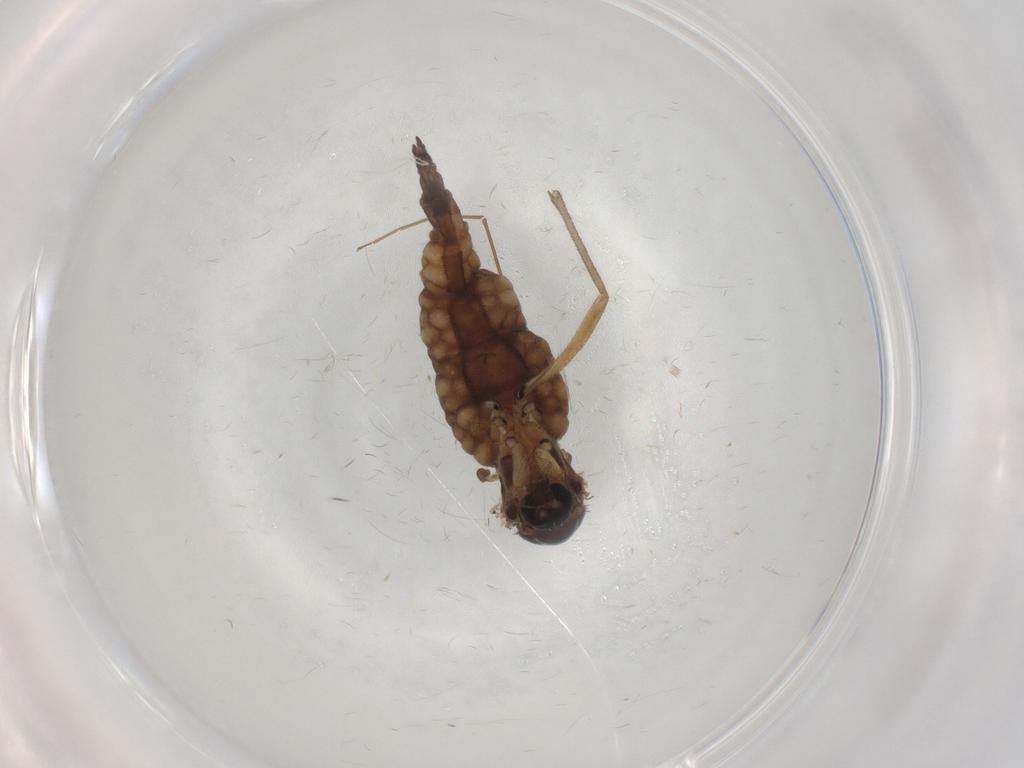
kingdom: Animalia
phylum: Arthropoda
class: Insecta
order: Diptera
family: Sciaridae
